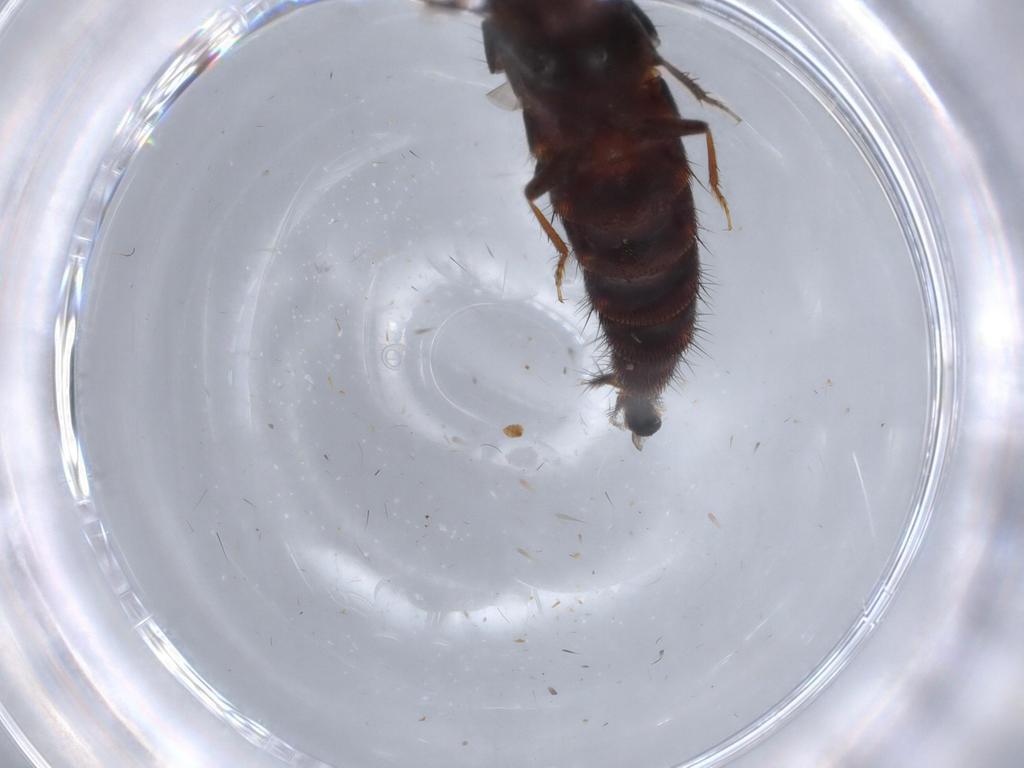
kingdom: Animalia
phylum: Arthropoda
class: Insecta
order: Coleoptera
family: Staphylinidae
